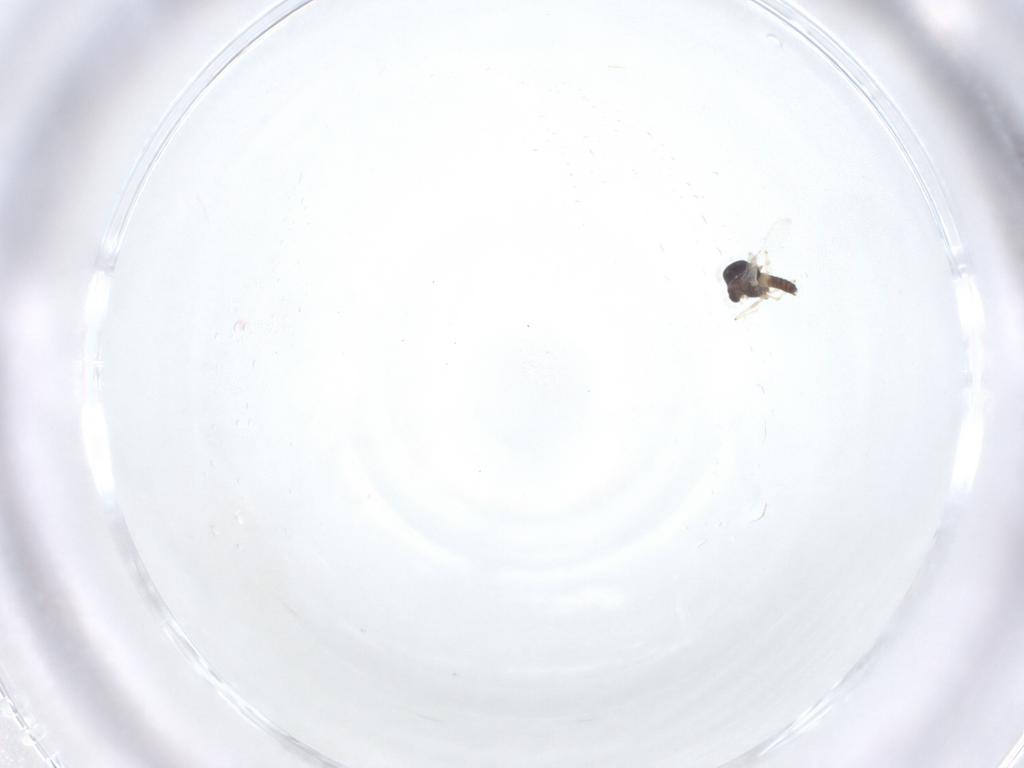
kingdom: Animalia
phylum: Arthropoda
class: Insecta
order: Diptera
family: Chironomidae
